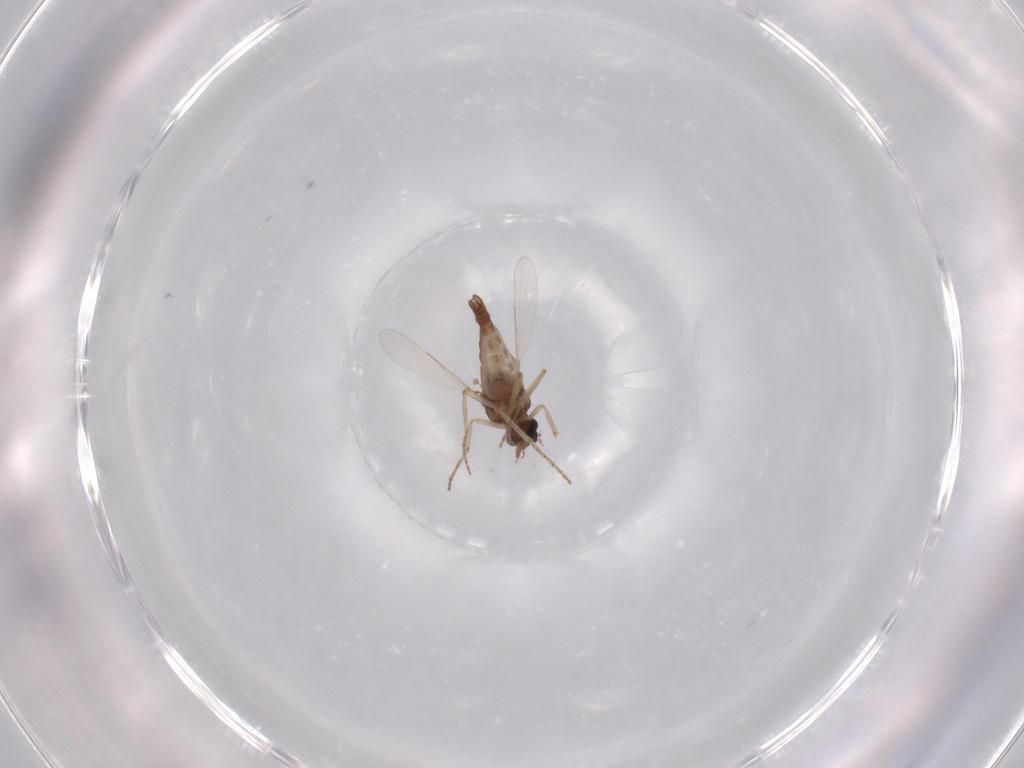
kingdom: Animalia
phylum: Arthropoda
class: Insecta
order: Diptera
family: Ceratopogonidae
